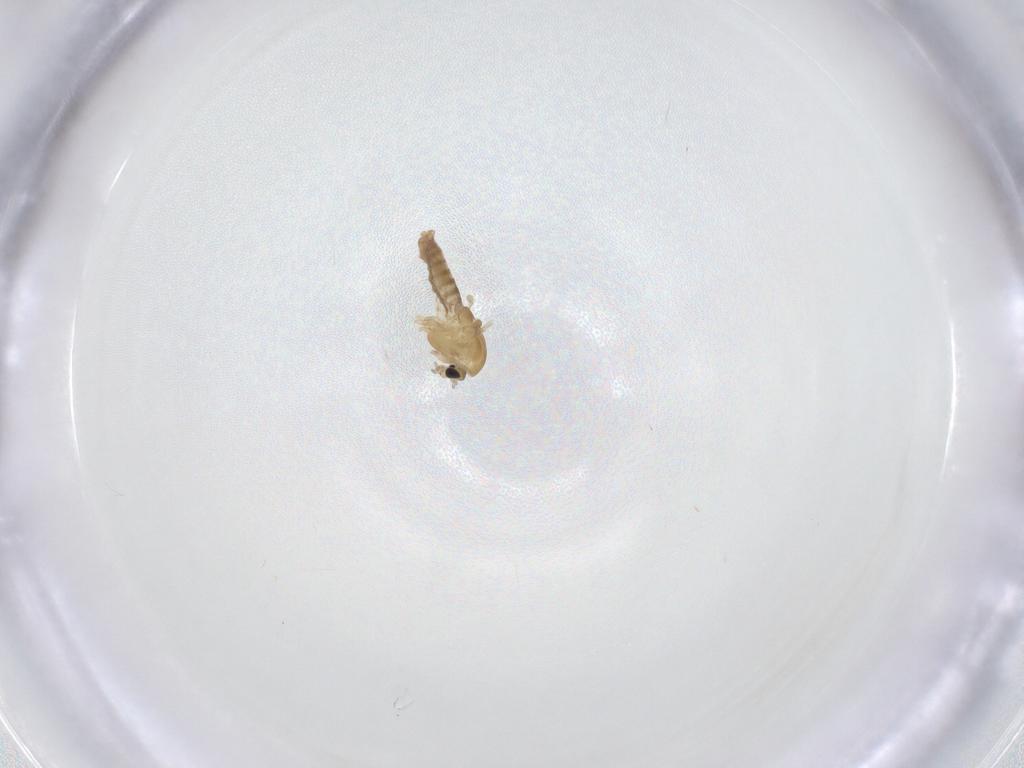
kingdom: Animalia
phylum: Arthropoda
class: Insecta
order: Diptera
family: Chironomidae
